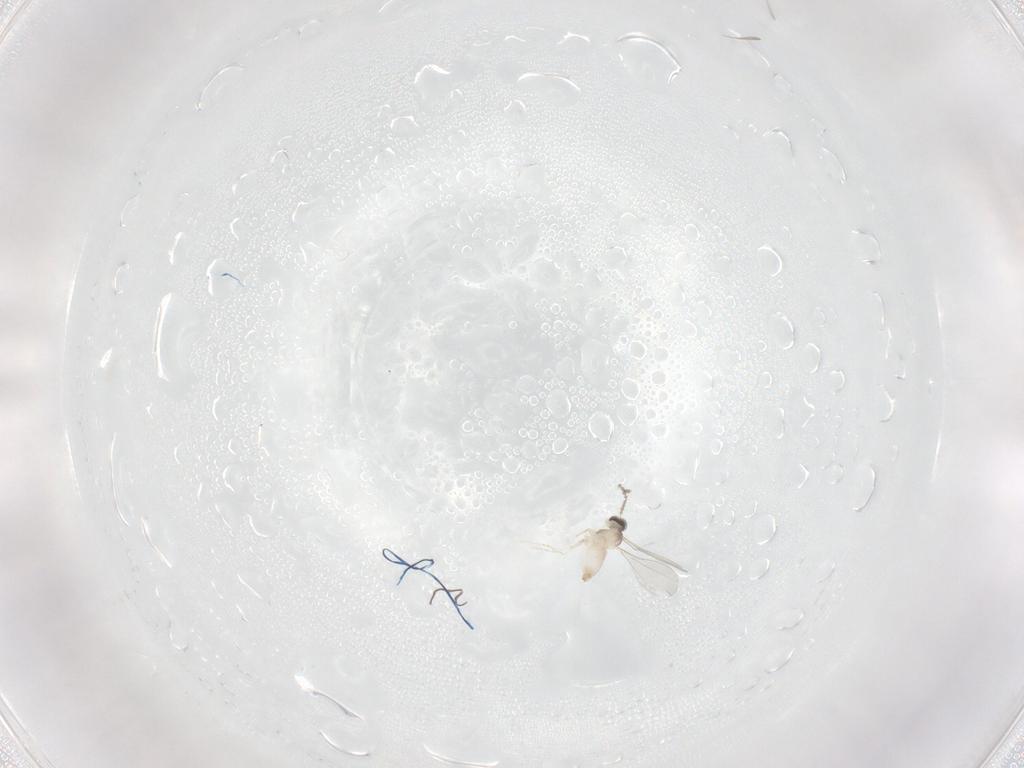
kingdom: Animalia
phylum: Arthropoda
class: Insecta
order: Diptera
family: Cecidomyiidae
